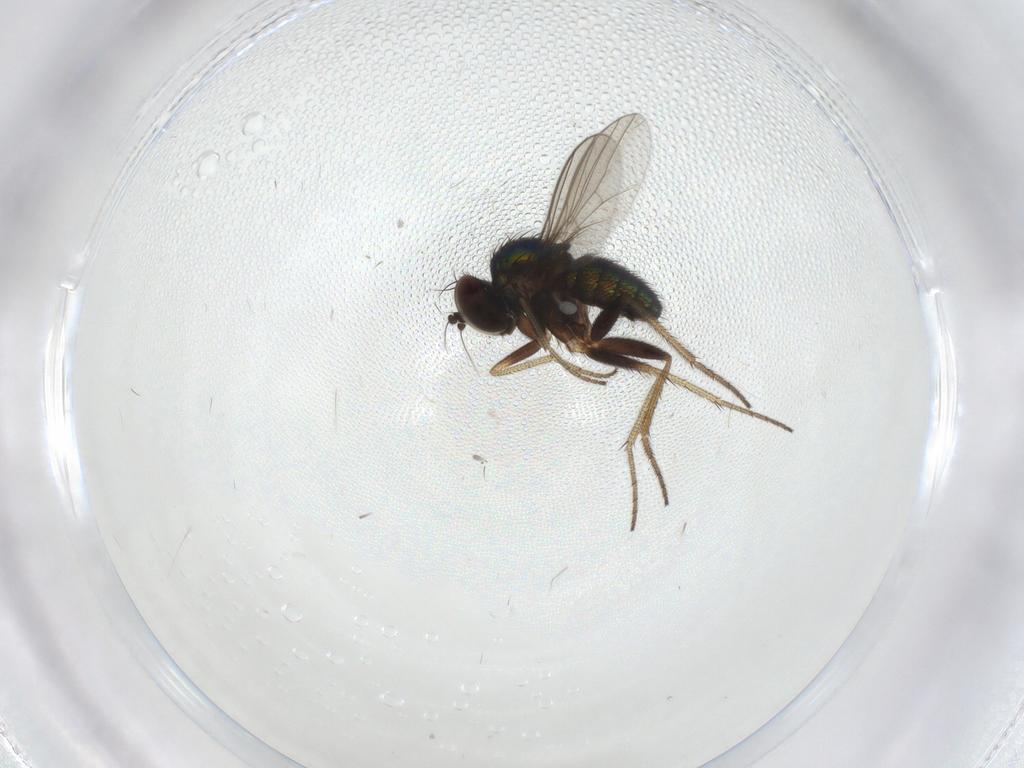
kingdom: Animalia
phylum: Arthropoda
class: Insecta
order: Diptera
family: Dolichopodidae
